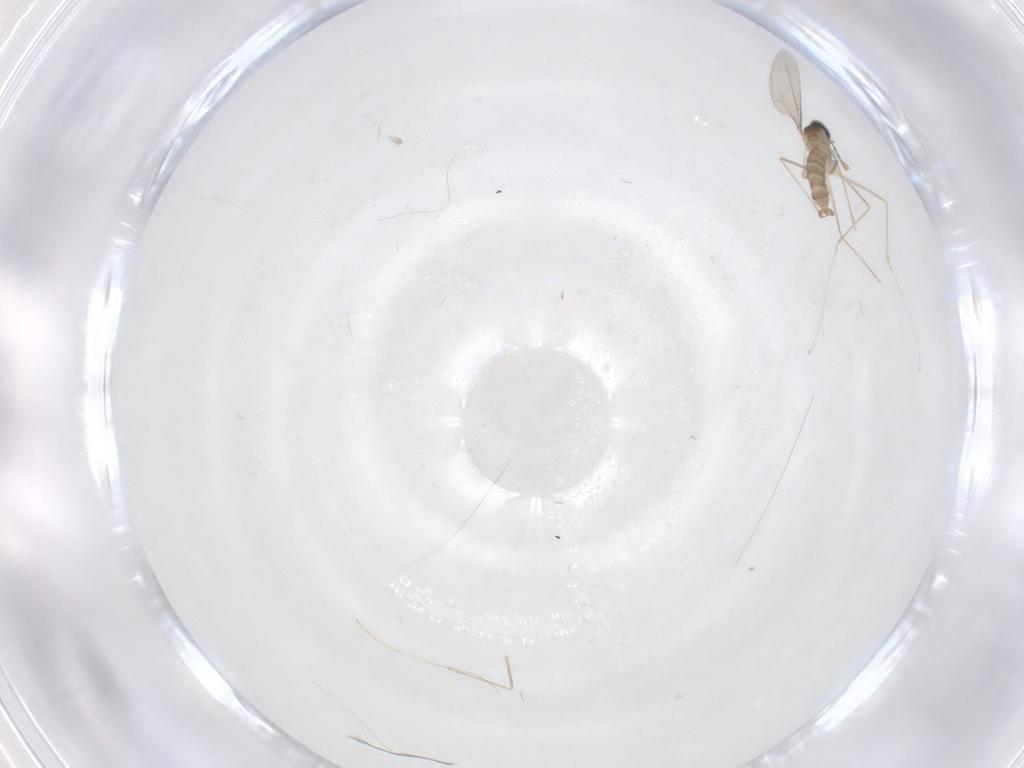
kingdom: Animalia
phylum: Arthropoda
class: Insecta
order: Diptera
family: Cecidomyiidae
